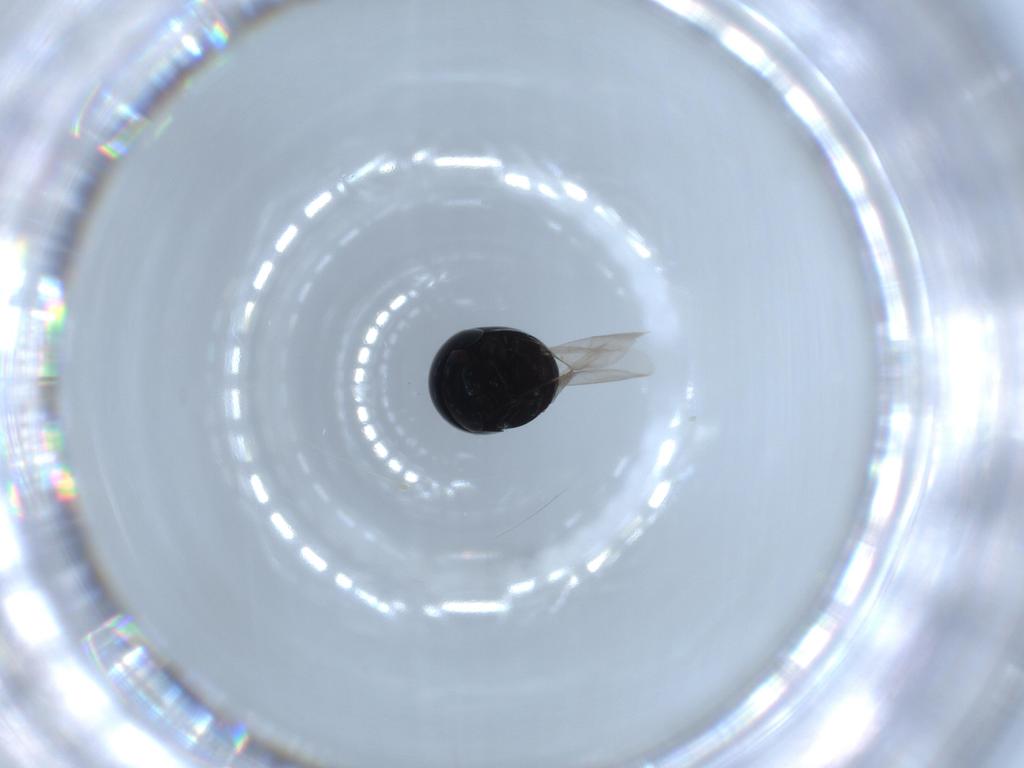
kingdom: Animalia
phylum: Arthropoda
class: Insecta
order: Coleoptera
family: Cybocephalidae
